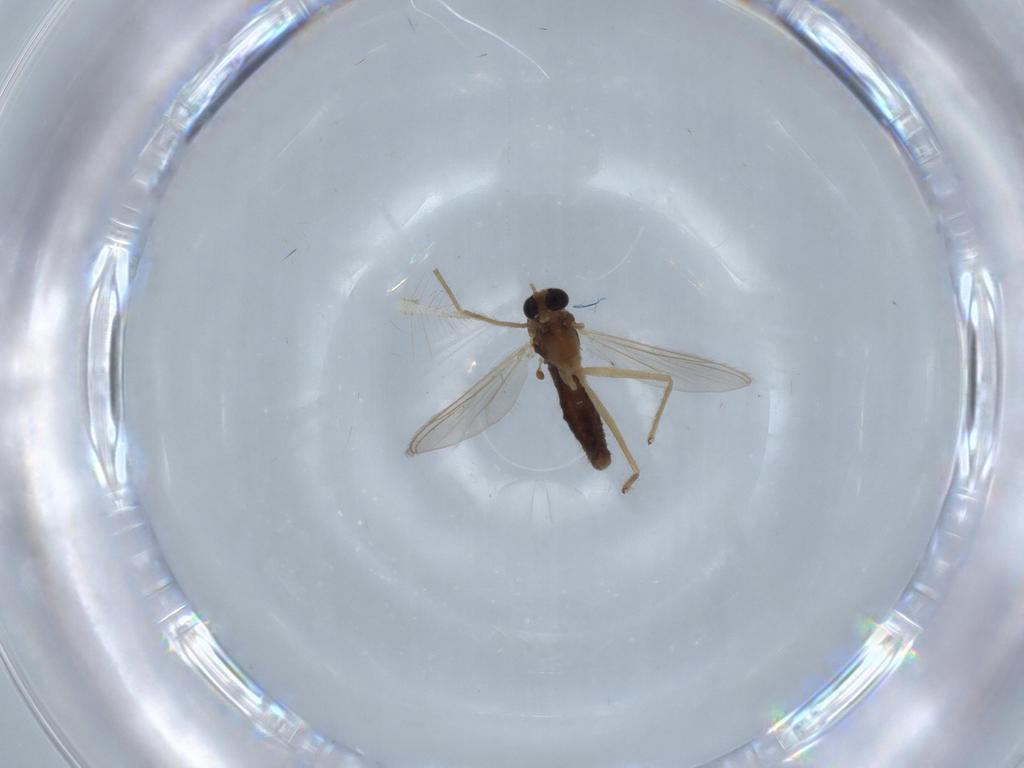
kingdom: Animalia
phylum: Arthropoda
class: Insecta
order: Diptera
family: Chironomidae
